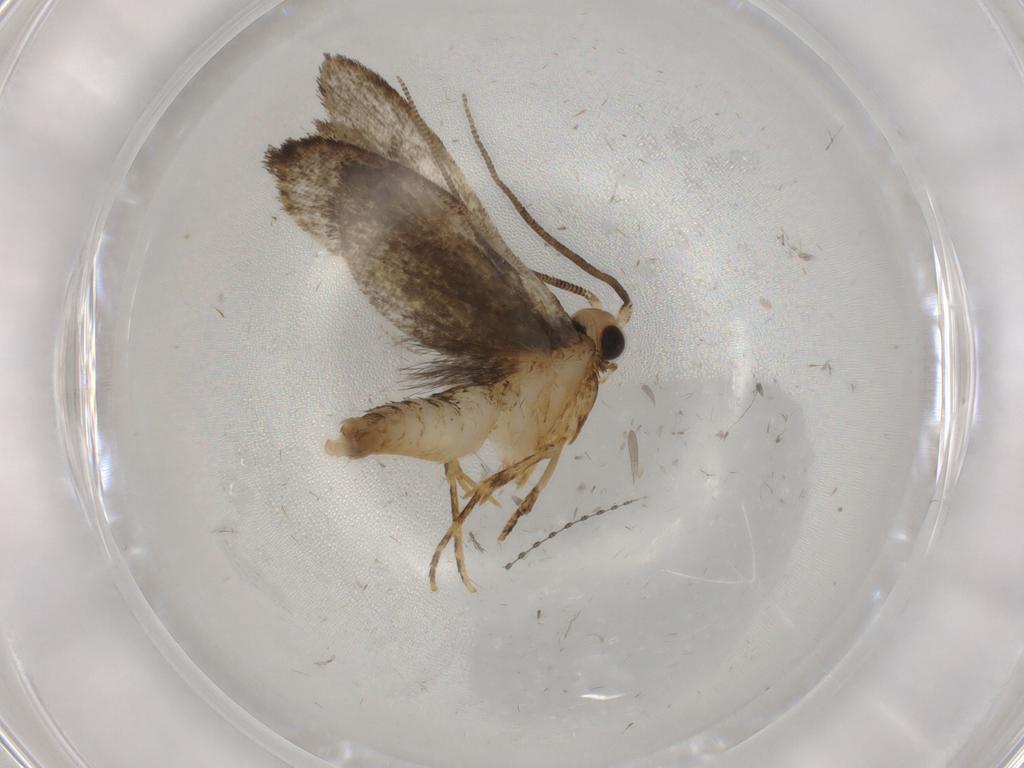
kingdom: Animalia
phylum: Arthropoda
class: Insecta
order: Lepidoptera
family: Tineidae
